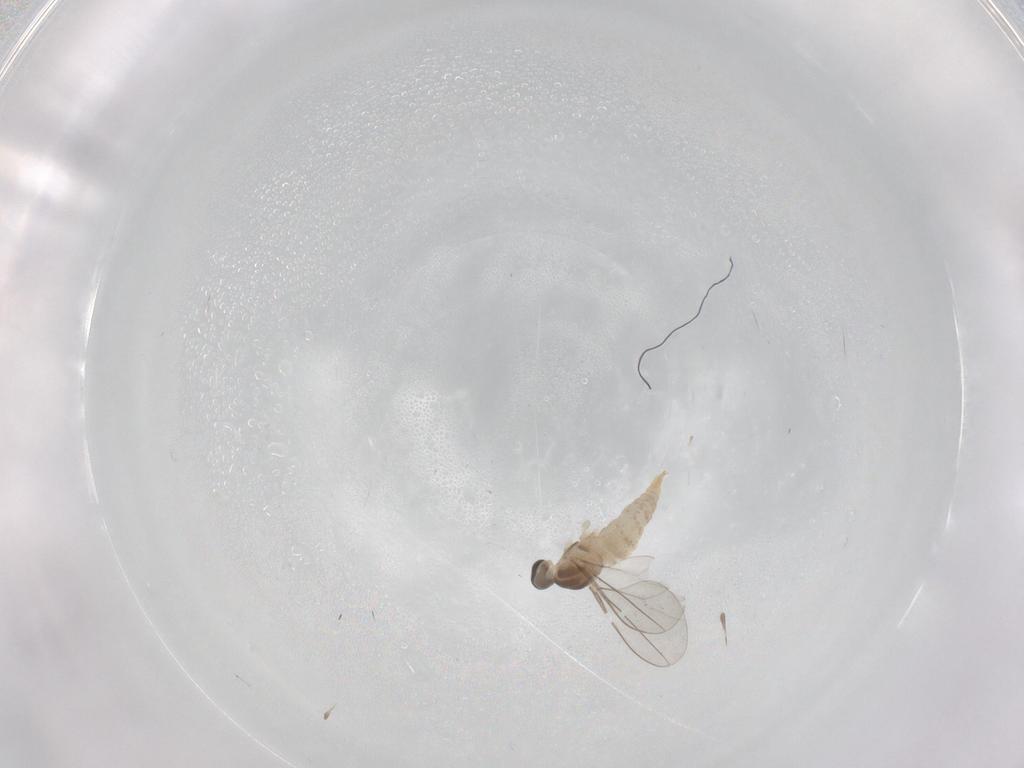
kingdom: Animalia
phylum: Arthropoda
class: Insecta
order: Diptera
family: Cecidomyiidae
